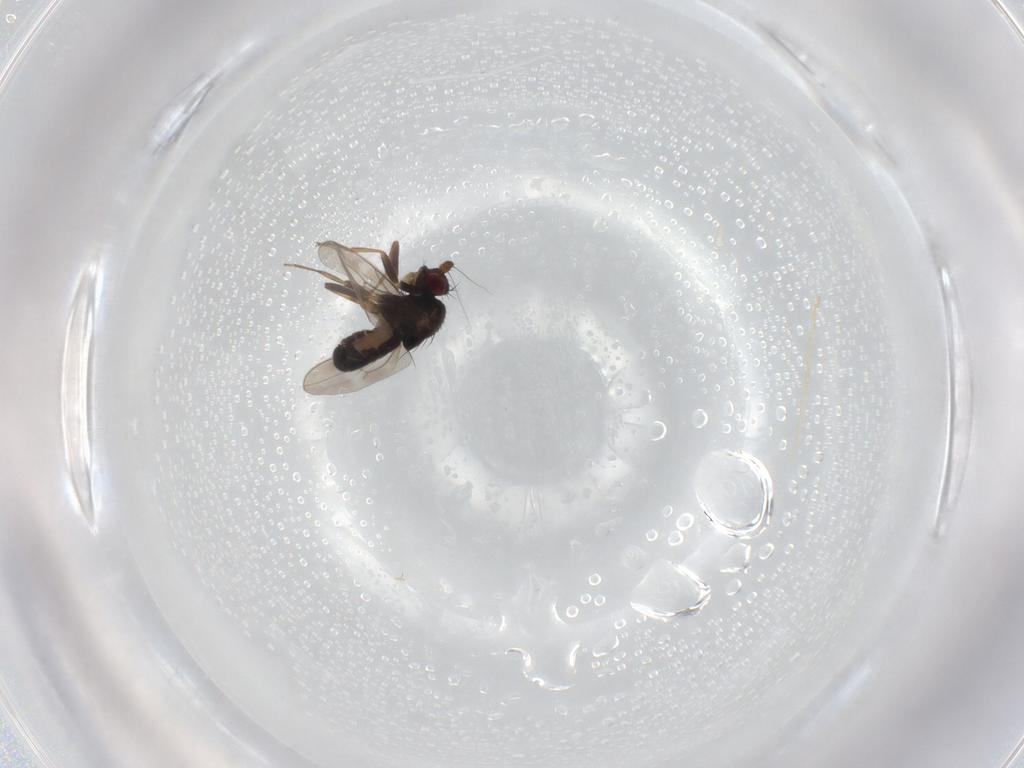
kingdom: Animalia
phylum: Arthropoda
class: Insecta
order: Diptera
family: Sphaeroceridae
